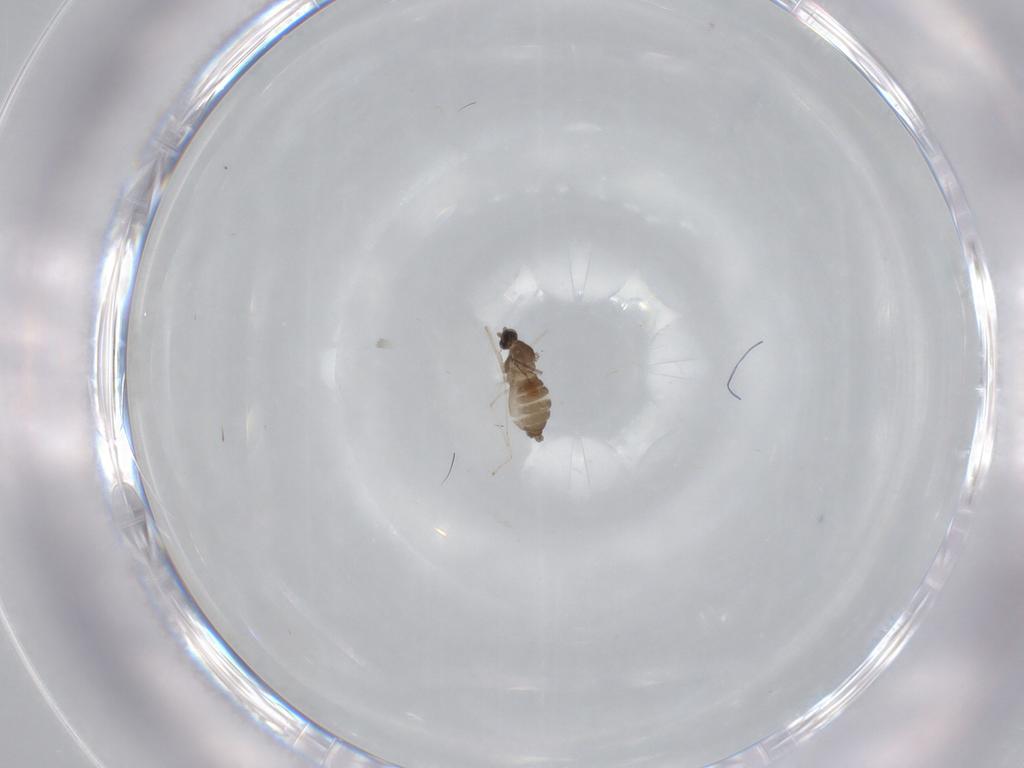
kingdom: Animalia
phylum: Arthropoda
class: Insecta
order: Diptera
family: Cecidomyiidae
